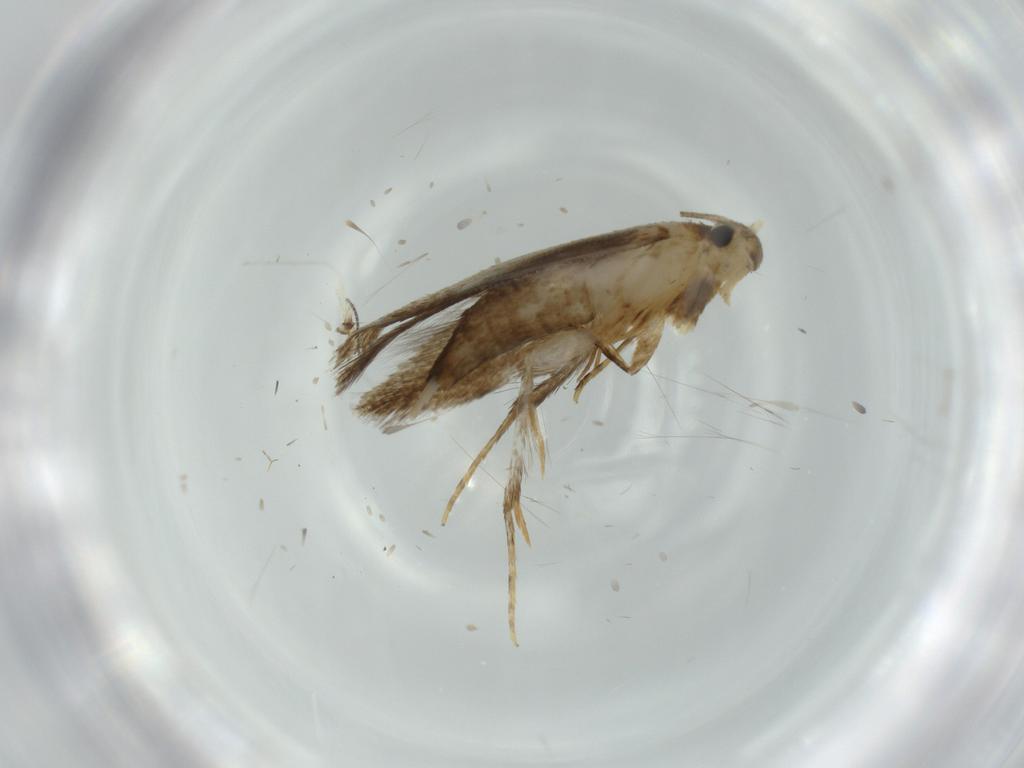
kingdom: Animalia
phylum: Arthropoda
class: Insecta
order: Lepidoptera
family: Tineidae
